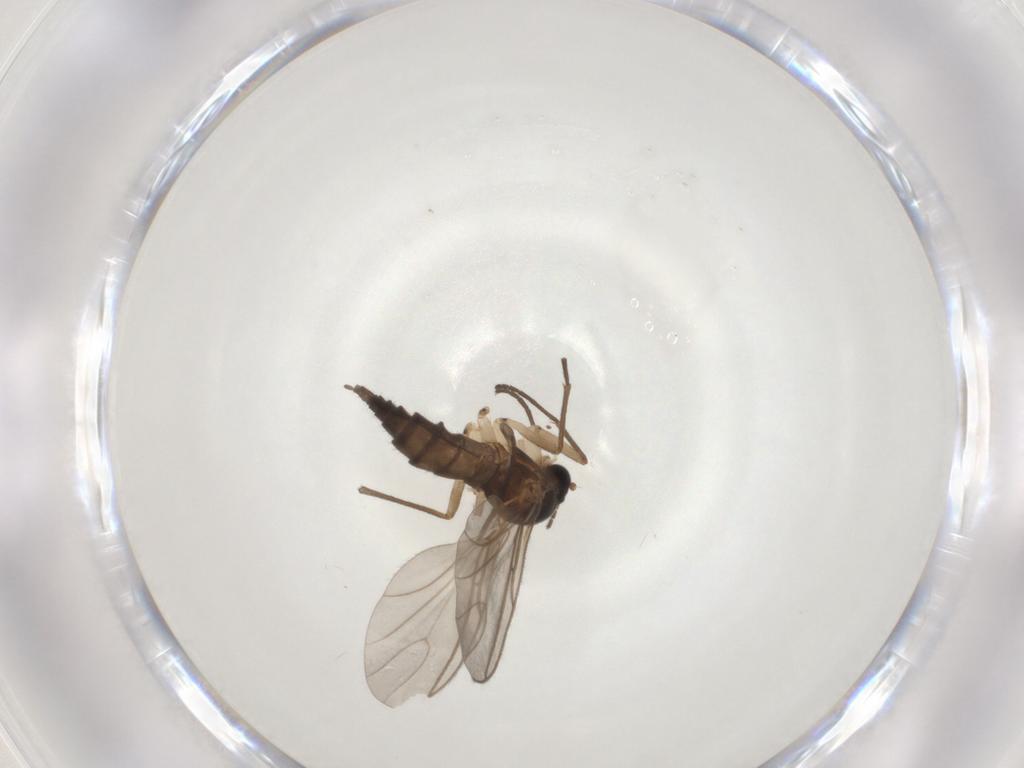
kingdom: Animalia
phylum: Arthropoda
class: Insecta
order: Diptera
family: Sciaridae
